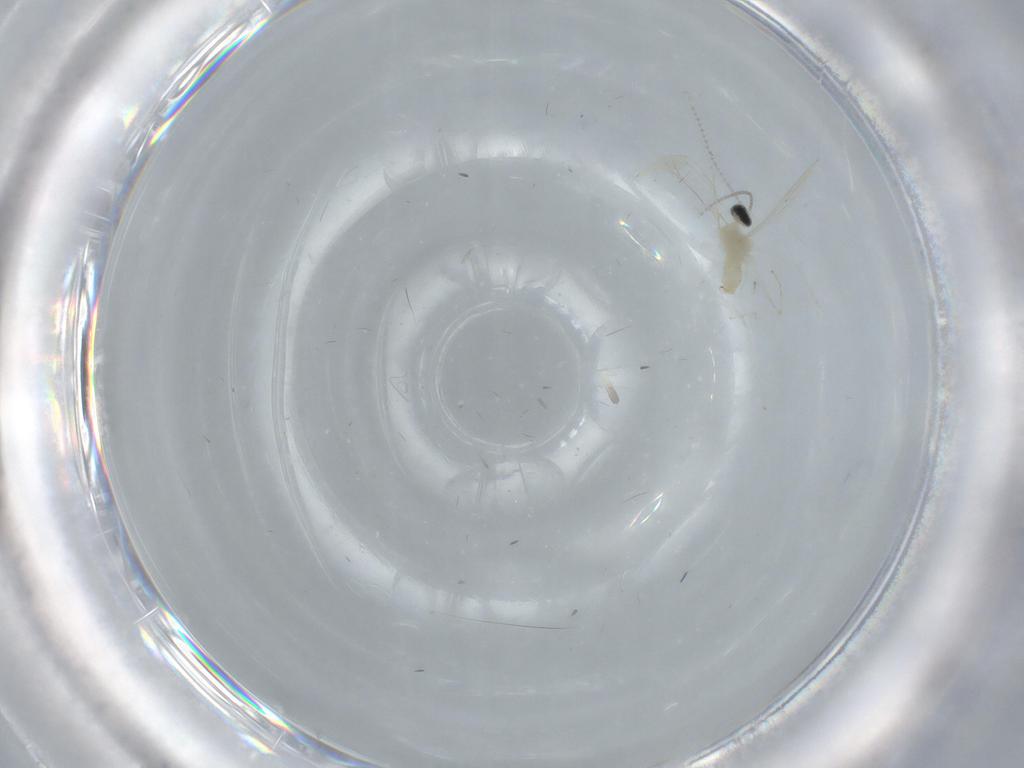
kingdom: Animalia
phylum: Arthropoda
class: Insecta
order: Diptera
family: Cecidomyiidae
